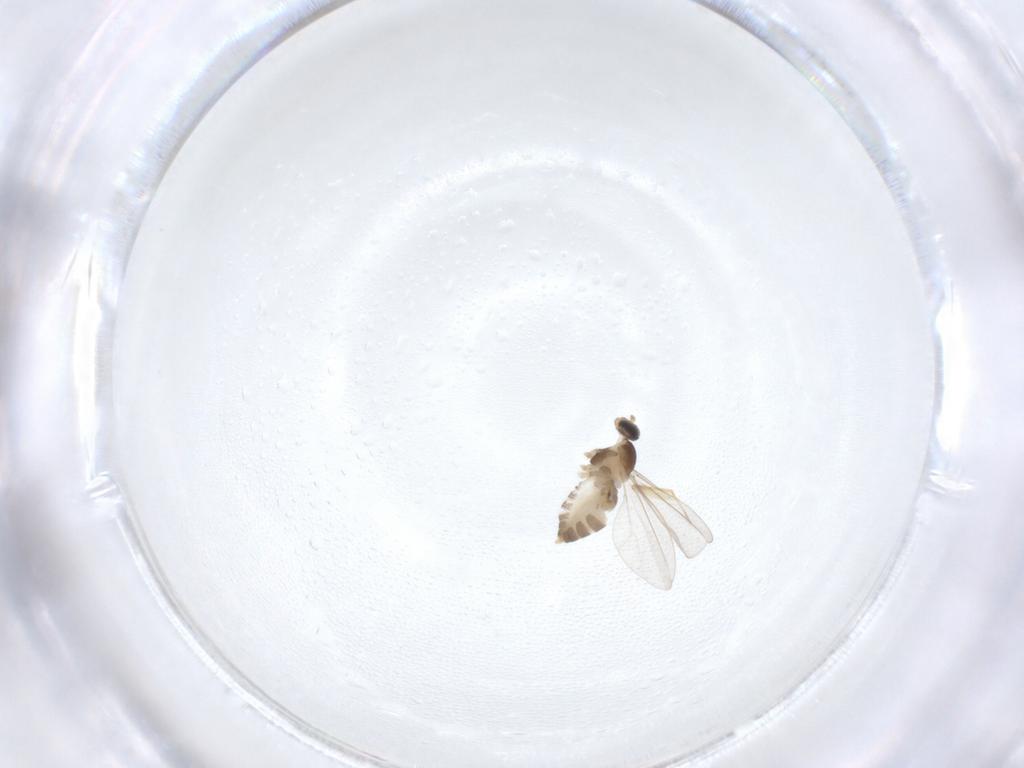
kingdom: Animalia
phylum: Arthropoda
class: Insecta
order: Diptera
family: Cecidomyiidae
